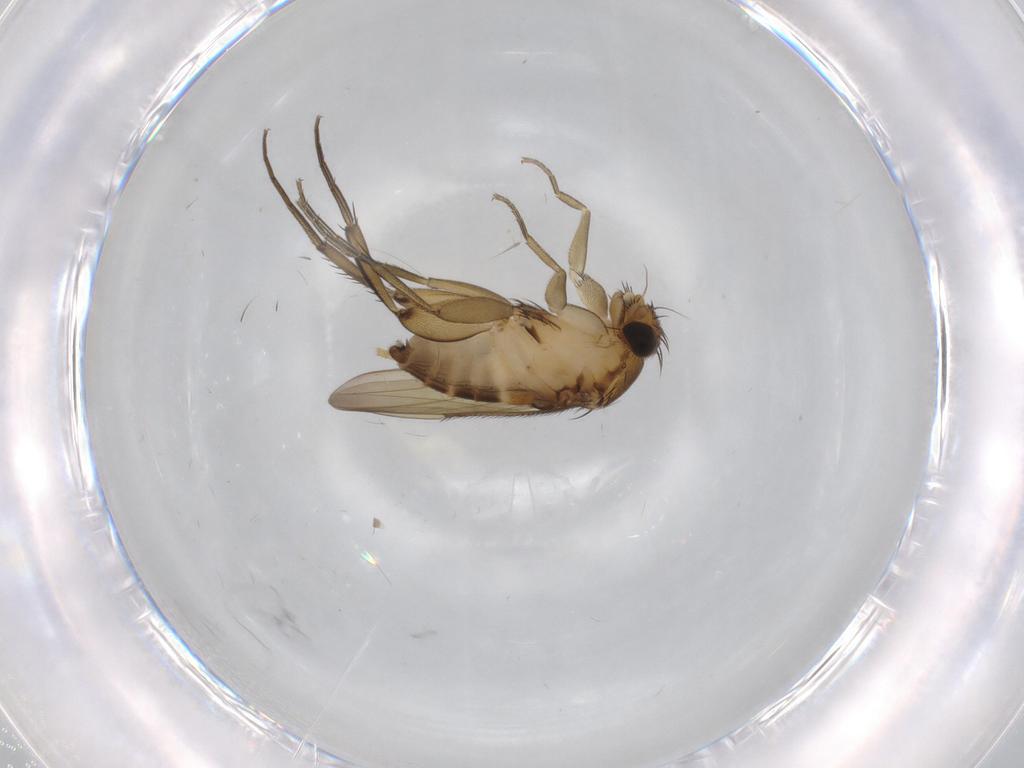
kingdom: Animalia
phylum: Arthropoda
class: Insecta
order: Diptera
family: Phoridae
